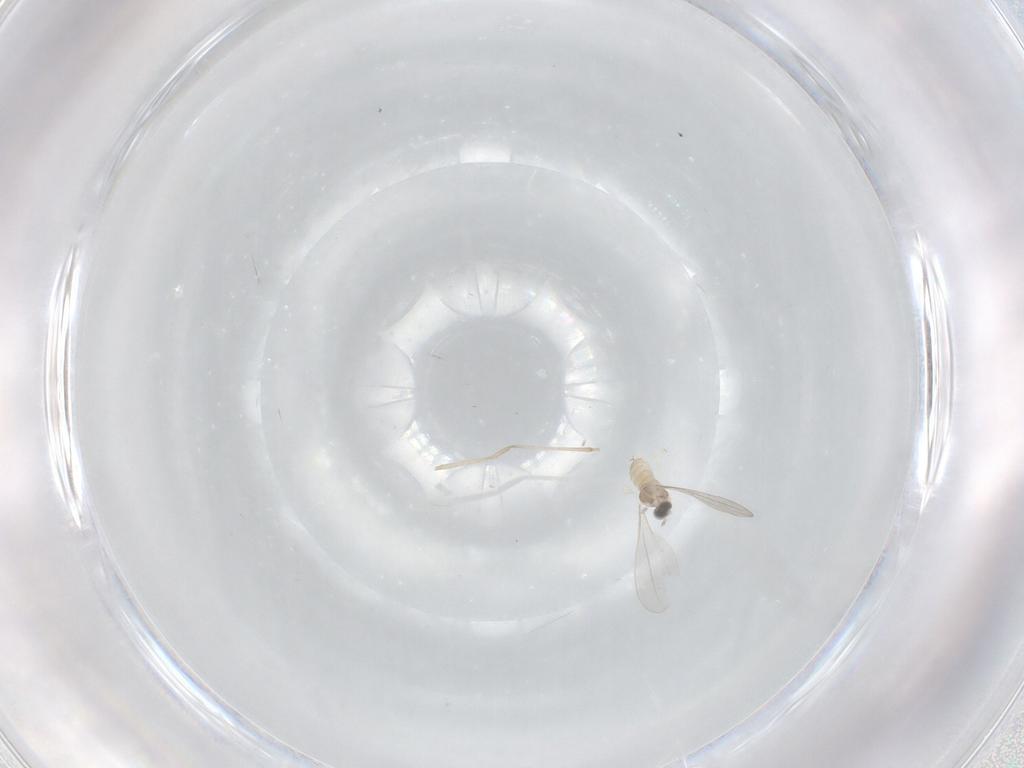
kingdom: Animalia
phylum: Arthropoda
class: Insecta
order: Diptera
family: Cecidomyiidae
